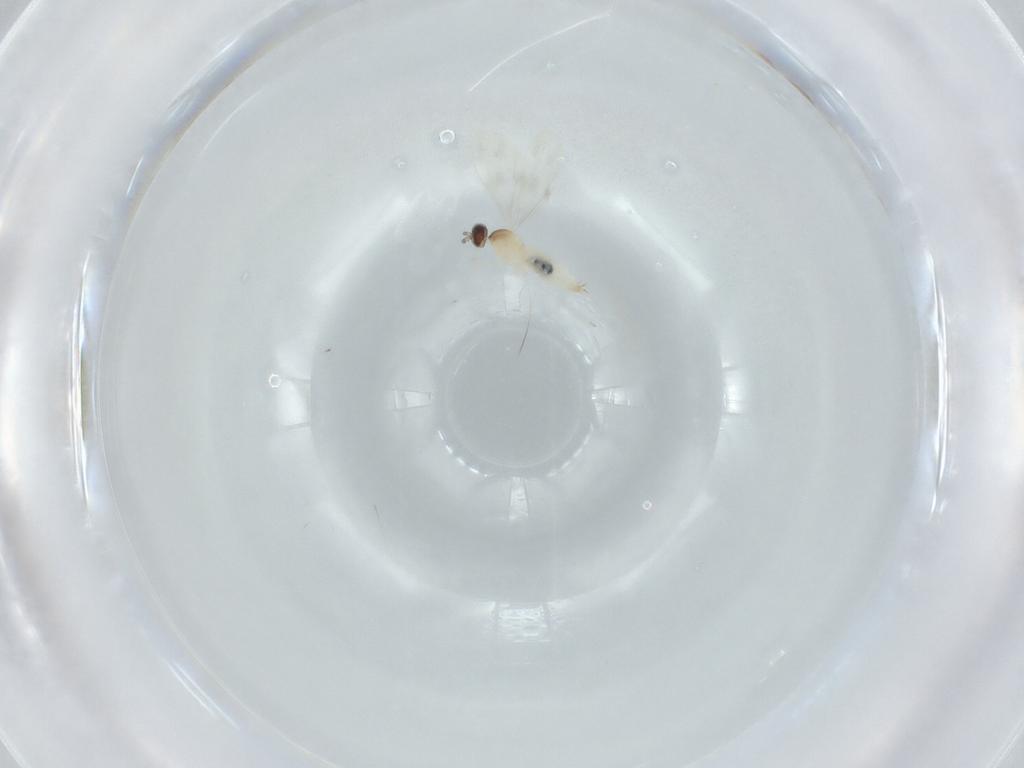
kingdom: Animalia
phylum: Arthropoda
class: Insecta
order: Diptera
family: Cecidomyiidae
